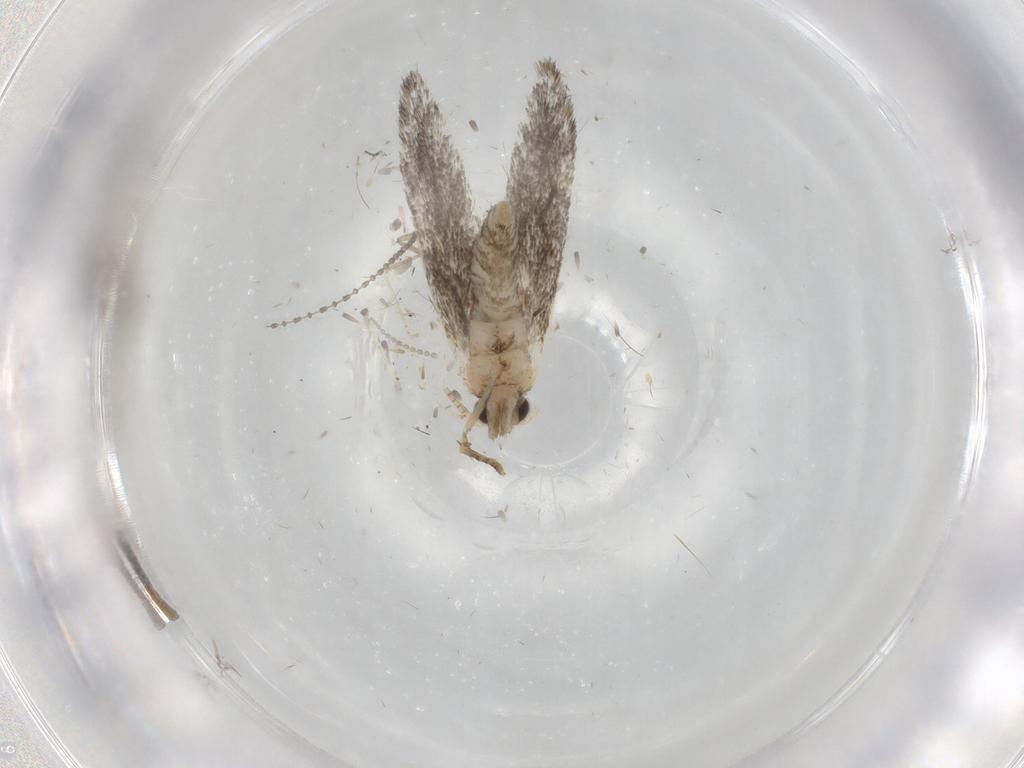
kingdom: Animalia
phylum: Arthropoda
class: Insecta
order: Lepidoptera
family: Tineidae
